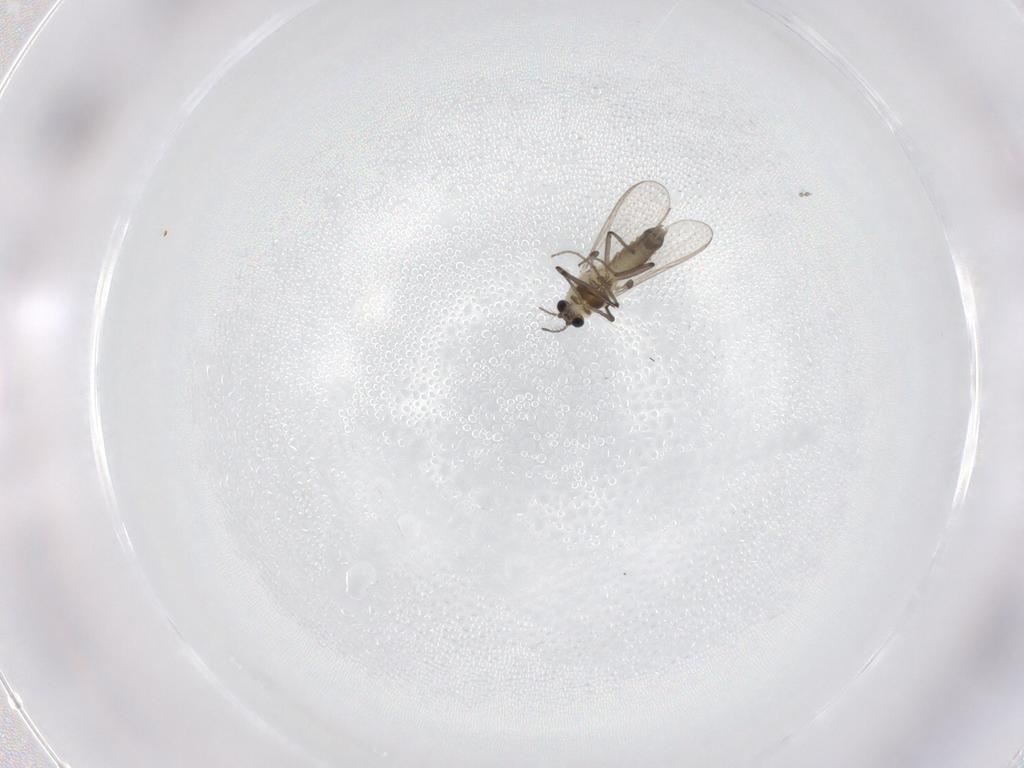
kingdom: Animalia
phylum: Arthropoda
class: Insecta
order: Diptera
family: Chironomidae
